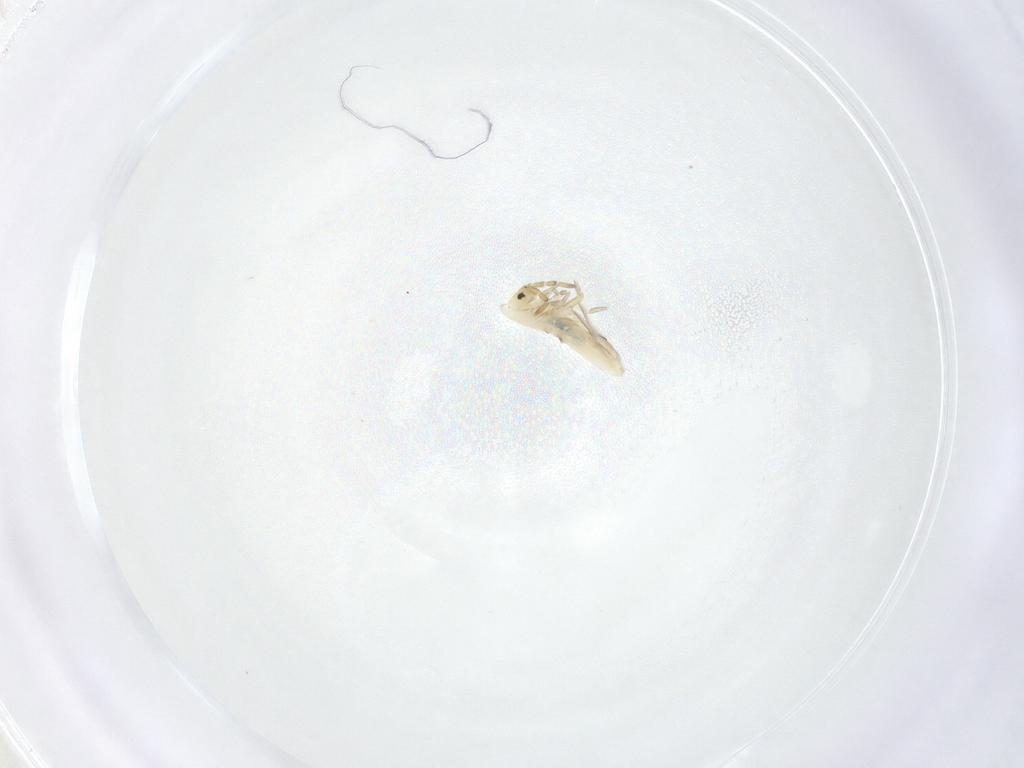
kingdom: Animalia
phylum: Arthropoda
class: Collembola
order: Entomobryomorpha
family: Entomobryidae
